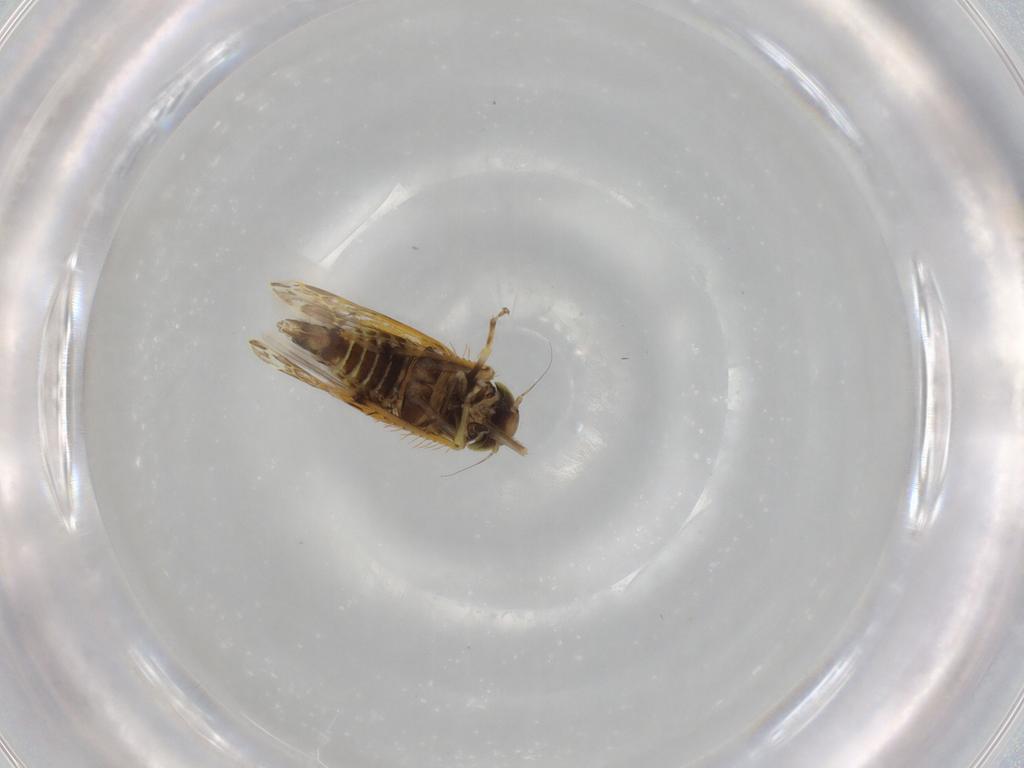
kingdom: Animalia
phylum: Arthropoda
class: Insecta
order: Hemiptera
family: Cicadellidae
